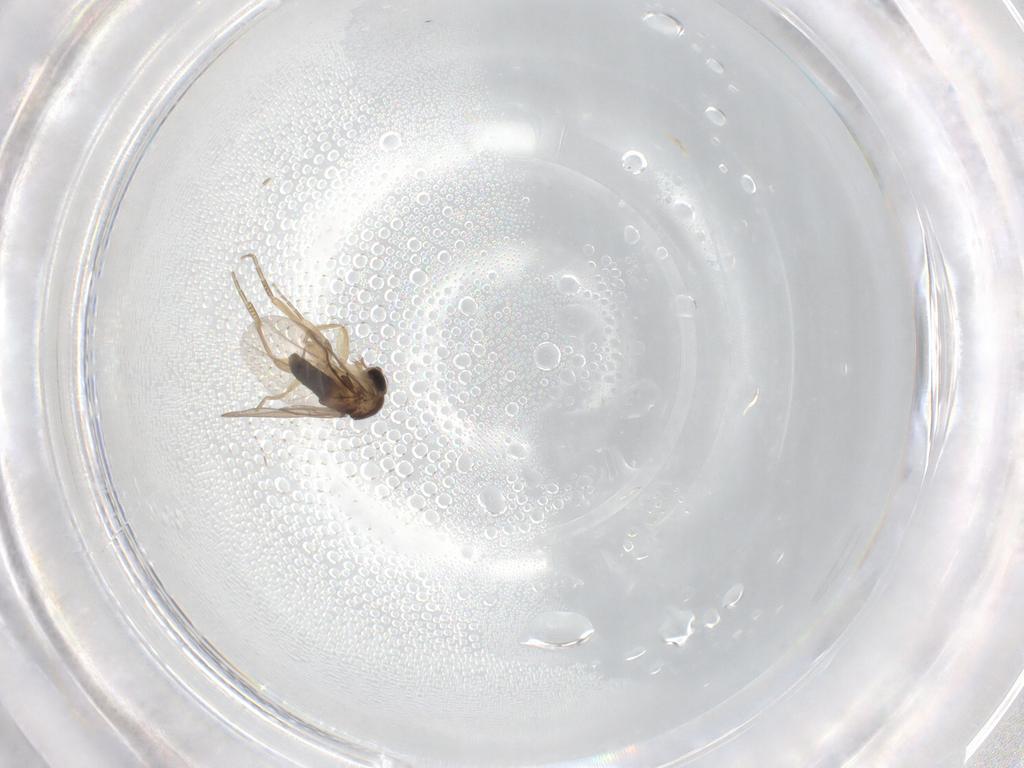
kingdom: Animalia
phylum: Arthropoda
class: Insecta
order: Diptera
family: Phoridae
